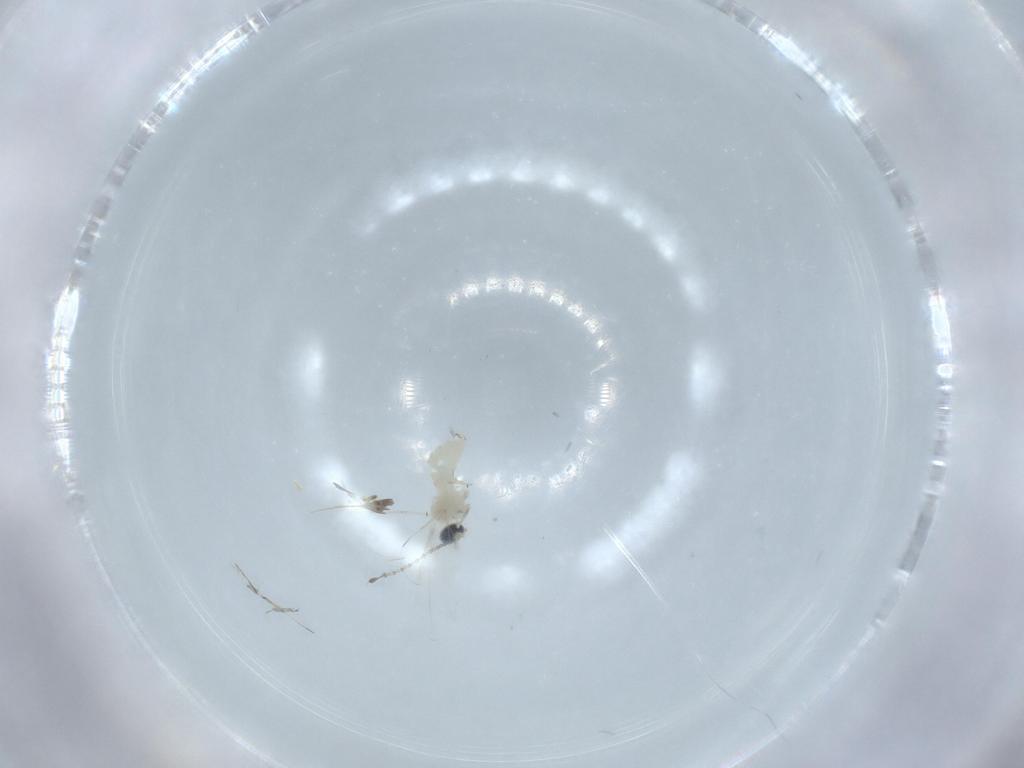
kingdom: Animalia
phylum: Arthropoda
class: Insecta
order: Diptera
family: Cecidomyiidae
